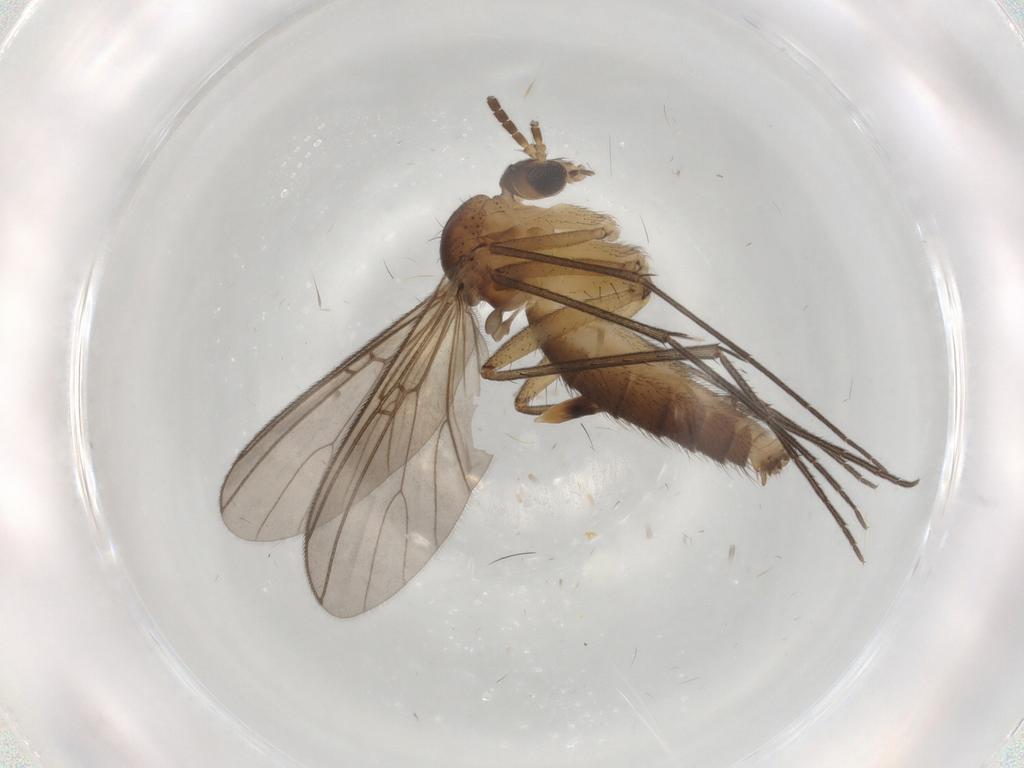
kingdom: Animalia
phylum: Arthropoda
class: Insecta
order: Diptera
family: Mycetophilidae
